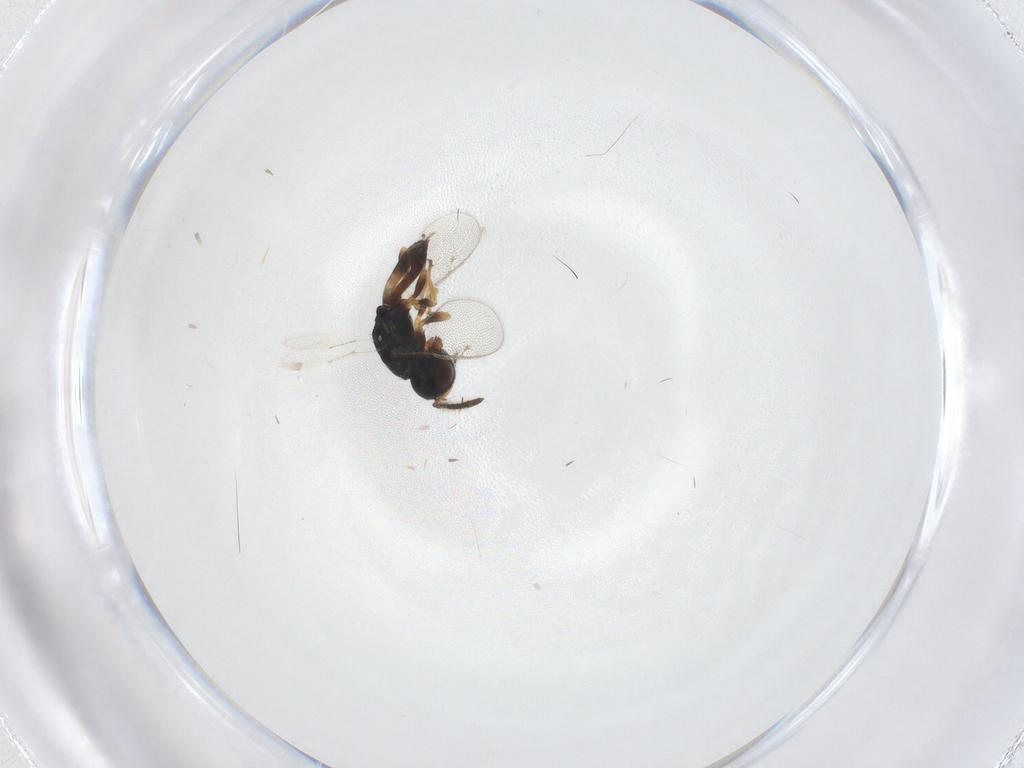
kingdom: Animalia
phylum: Arthropoda
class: Insecta
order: Hymenoptera
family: Pteromalidae
